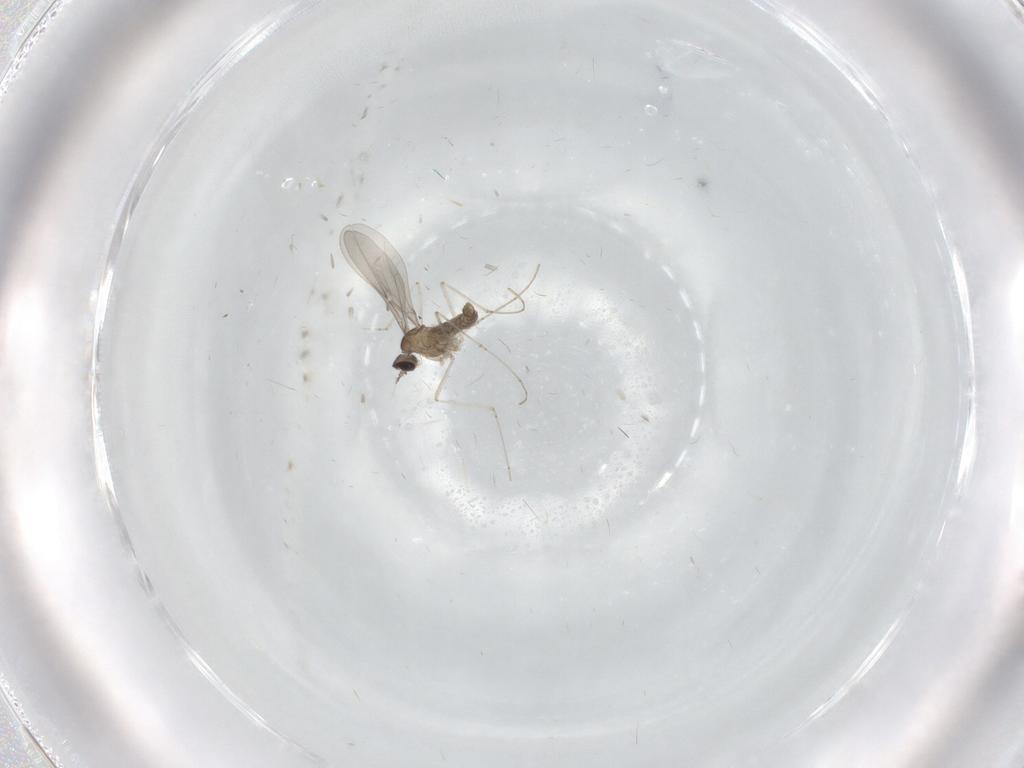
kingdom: Animalia
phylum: Arthropoda
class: Insecta
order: Diptera
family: Cecidomyiidae
